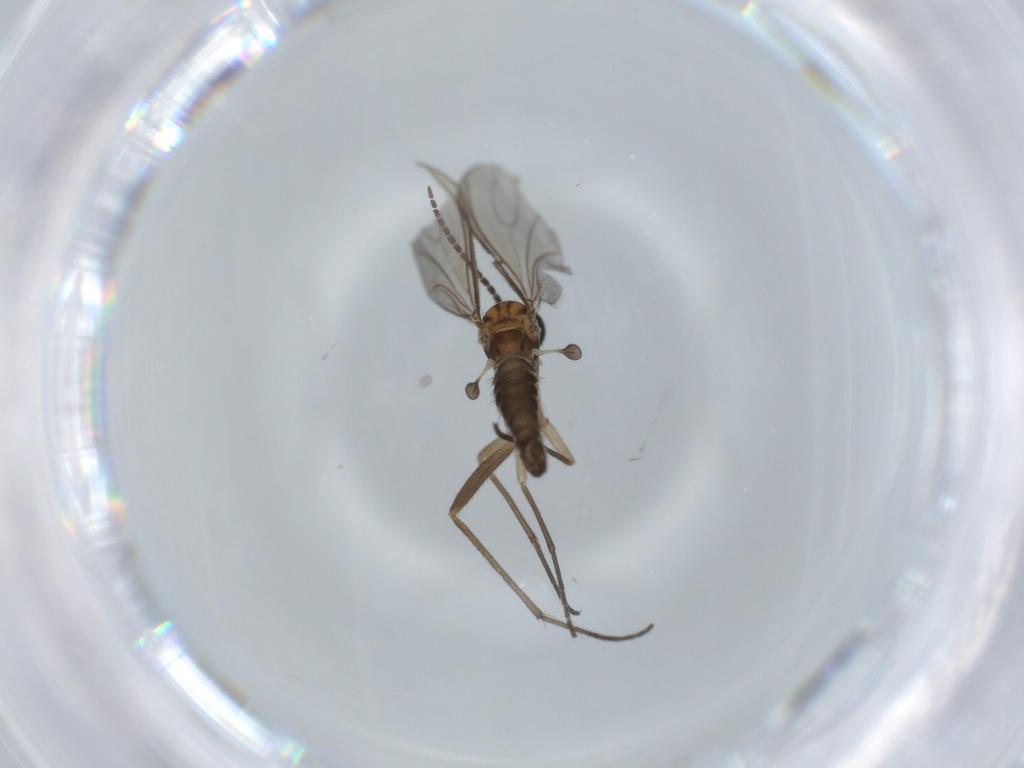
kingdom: Animalia
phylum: Arthropoda
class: Insecta
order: Diptera
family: Sciaridae
